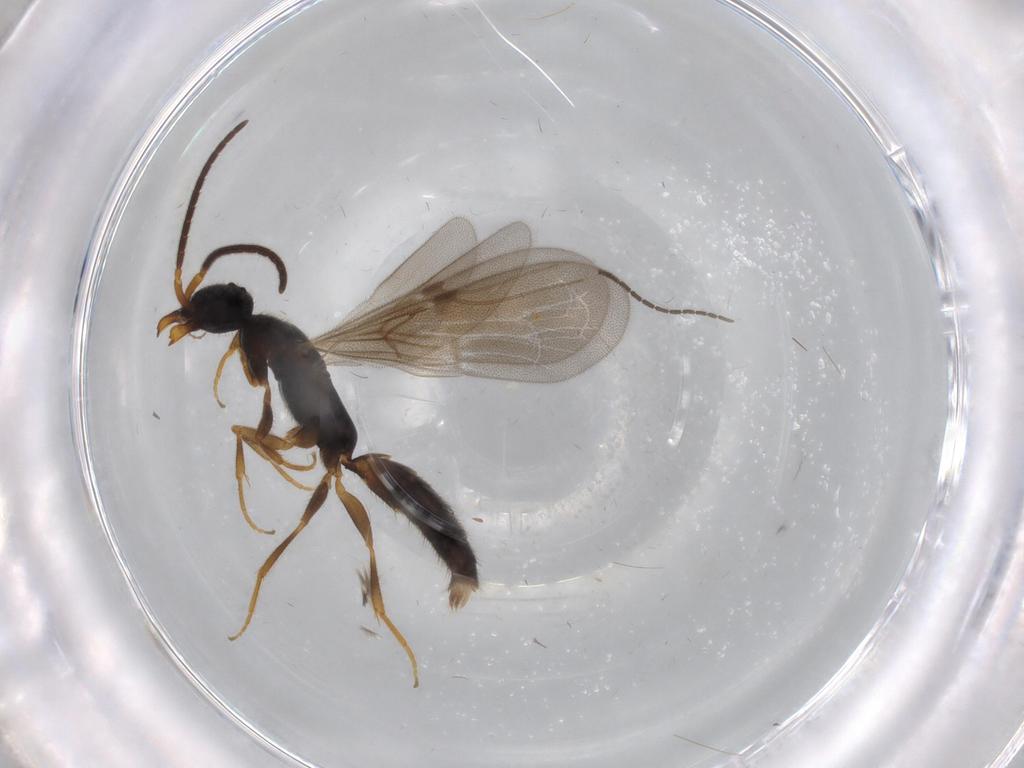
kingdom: Animalia
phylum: Arthropoda
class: Insecta
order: Hymenoptera
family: Bethylidae
